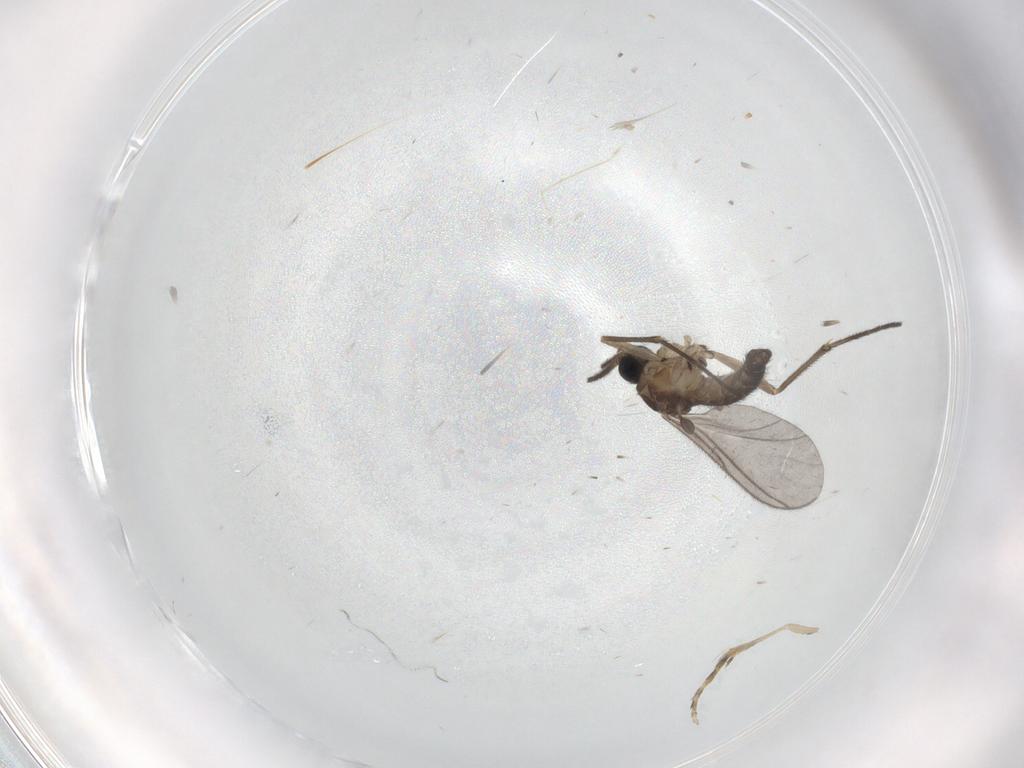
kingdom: Animalia
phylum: Arthropoda
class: Insecta
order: Diptera
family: Sciaridae
